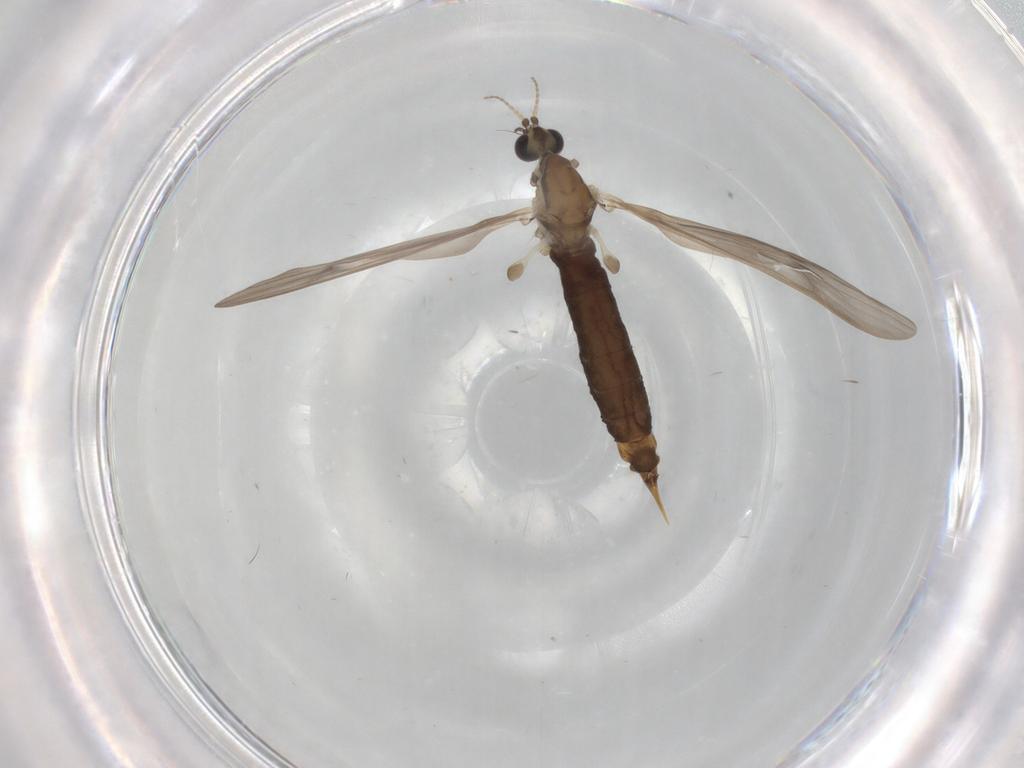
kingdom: Animalia
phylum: Arthropoda
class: Insecta
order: Diptera
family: Limoniidae
